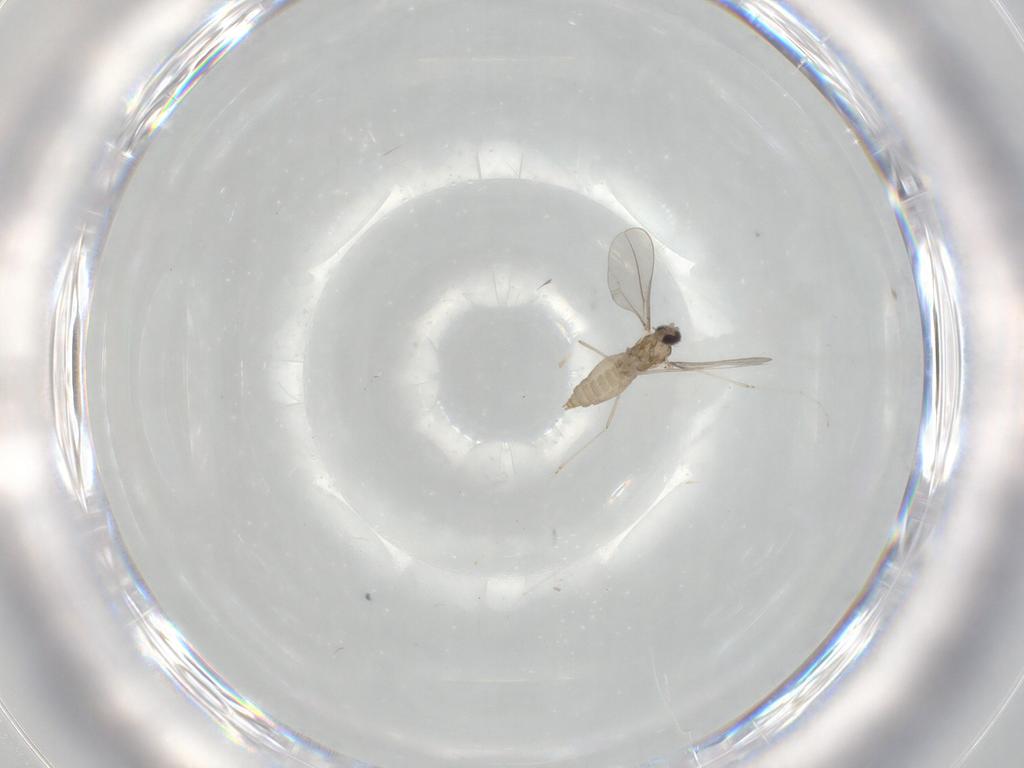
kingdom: Animalia
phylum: Arthropoda
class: Insecta
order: Diptera
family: Cecidomyiidae
